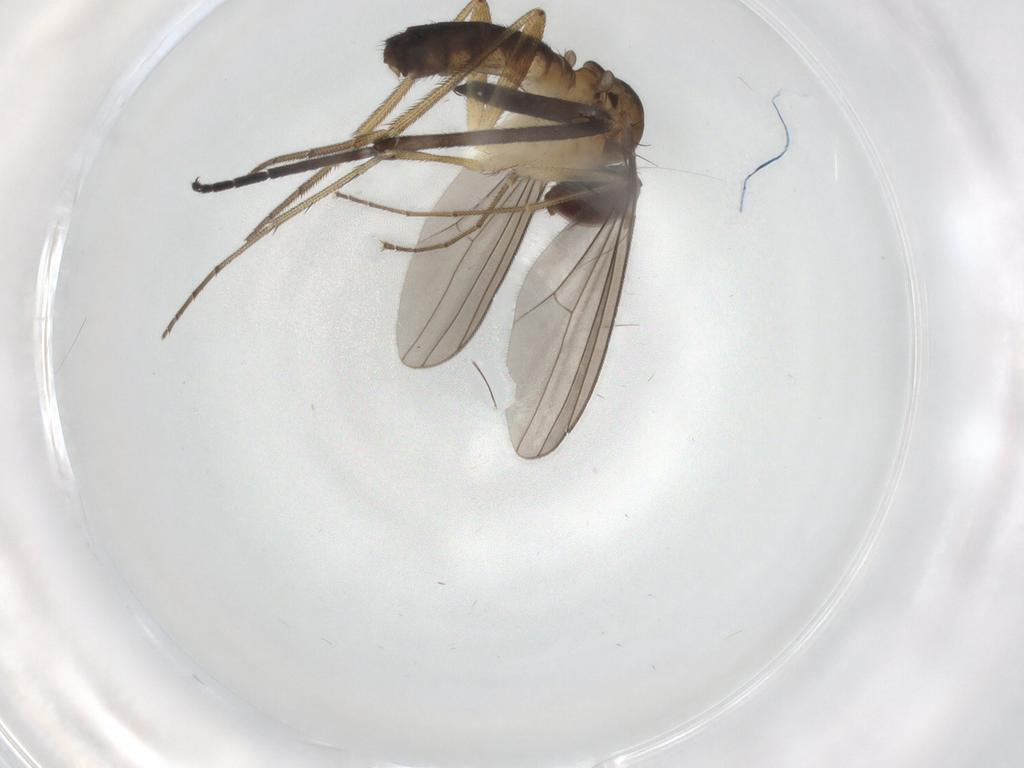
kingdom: Animalia
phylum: Arthropoda
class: Insecta
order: Diptera
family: Dolichopodidae
